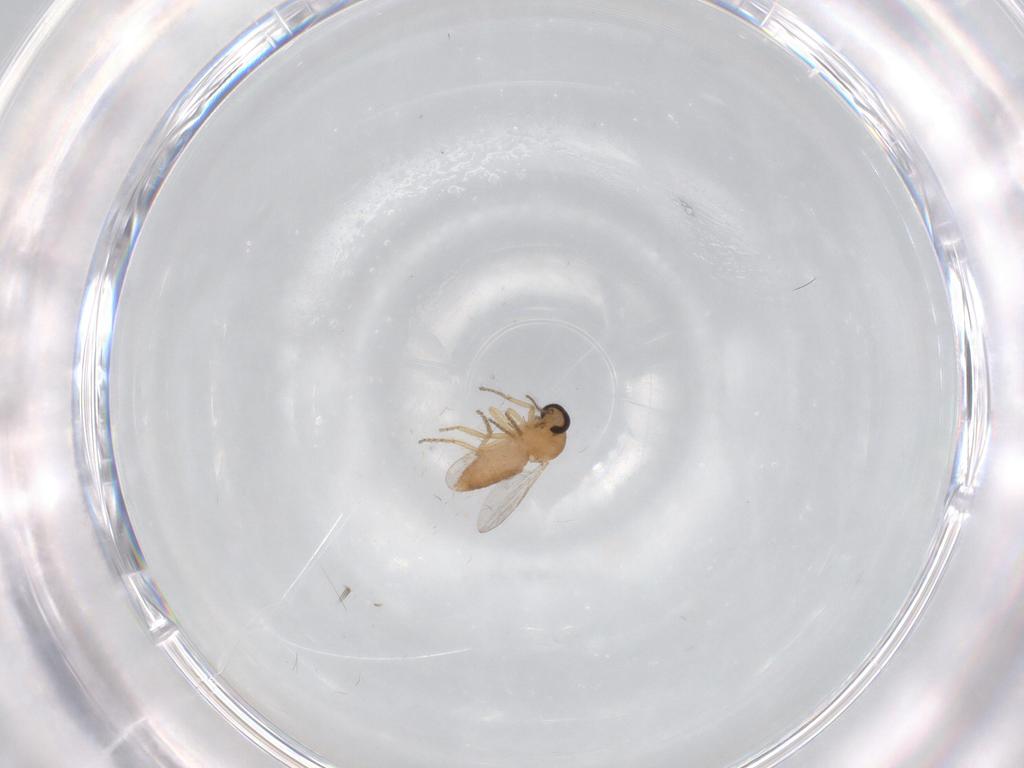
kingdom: Animalia
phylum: Arthropoda
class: Insecta
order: Diptera
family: Ceratopogonidae
